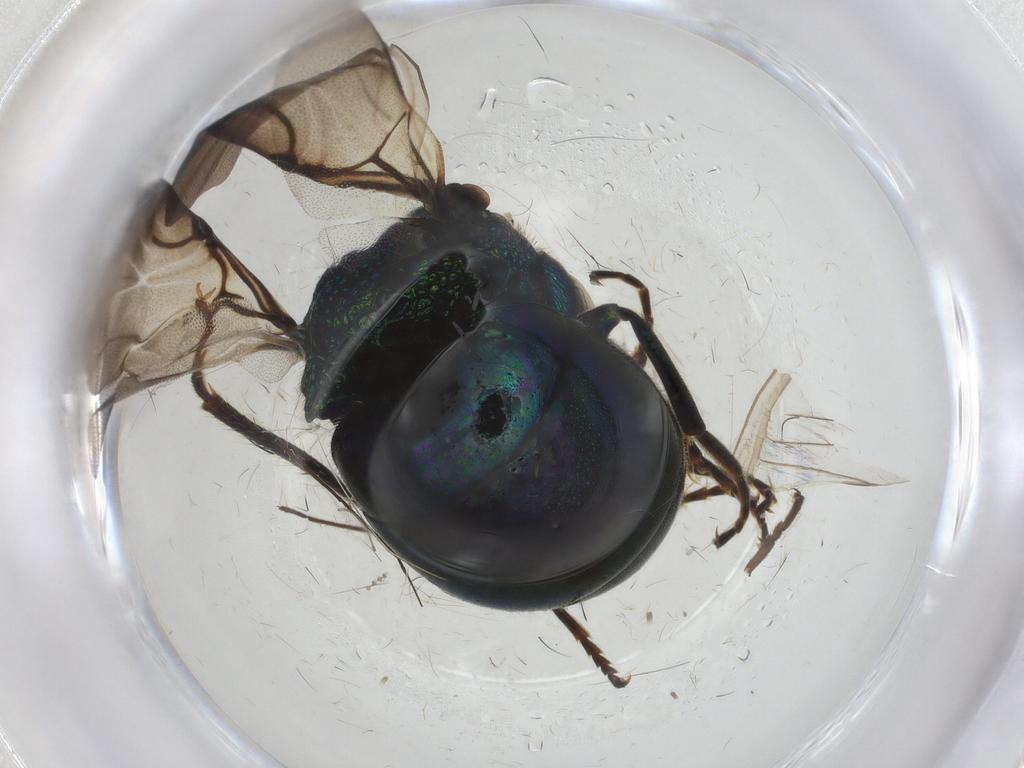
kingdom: Animalia
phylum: Arthropoda
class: Insecta
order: Hymenoptera
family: Chrysididae
